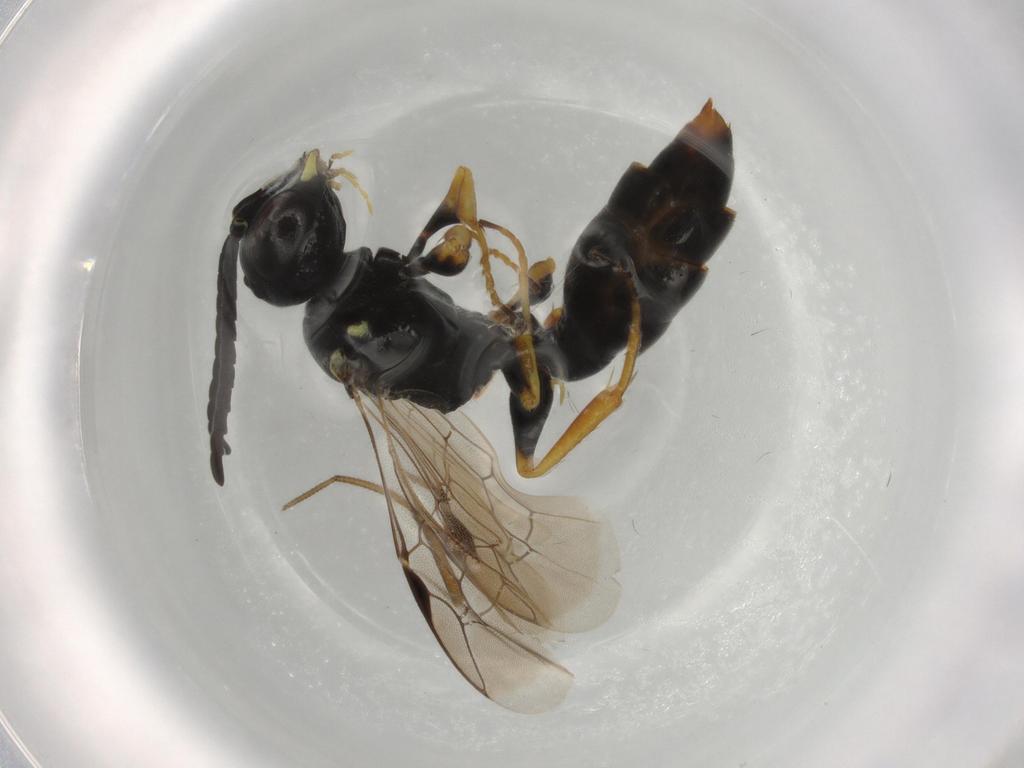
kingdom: Animalia
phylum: Arthropoda
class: Insecta
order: Hymenoptera
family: Crabronidae
